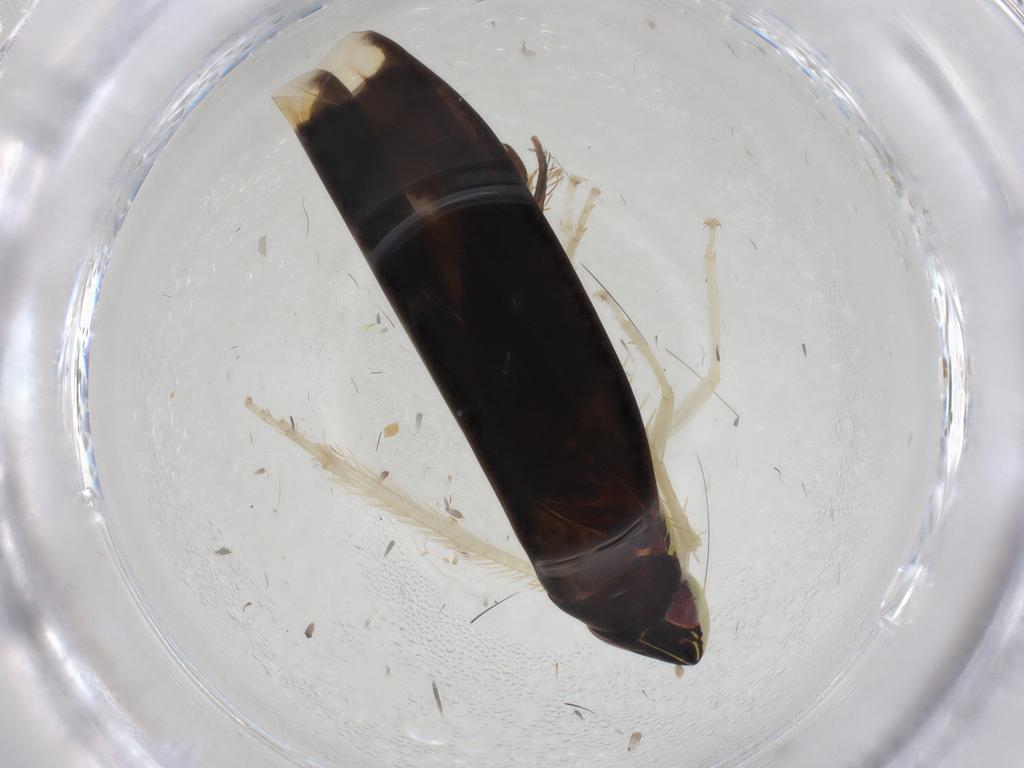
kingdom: Animalia
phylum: Arthropoda
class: Insecta
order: Hemiptera
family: Cicadellidae
